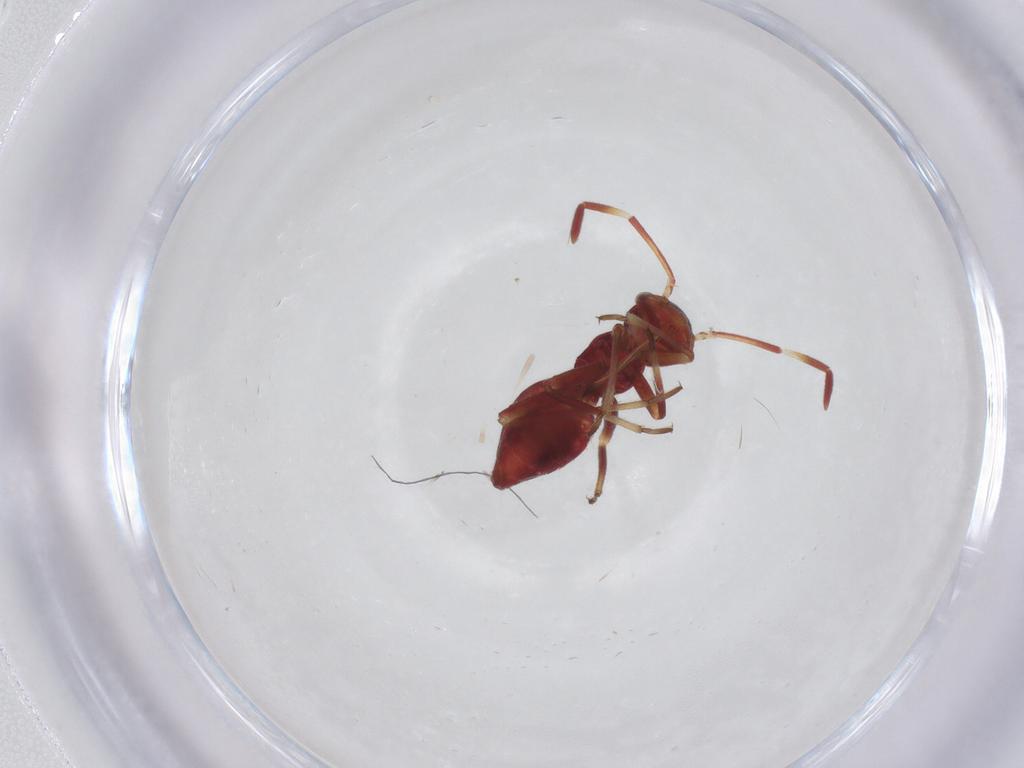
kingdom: Animalia
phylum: Arthropoda
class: Insecta
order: Hemiptera
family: Miridae
